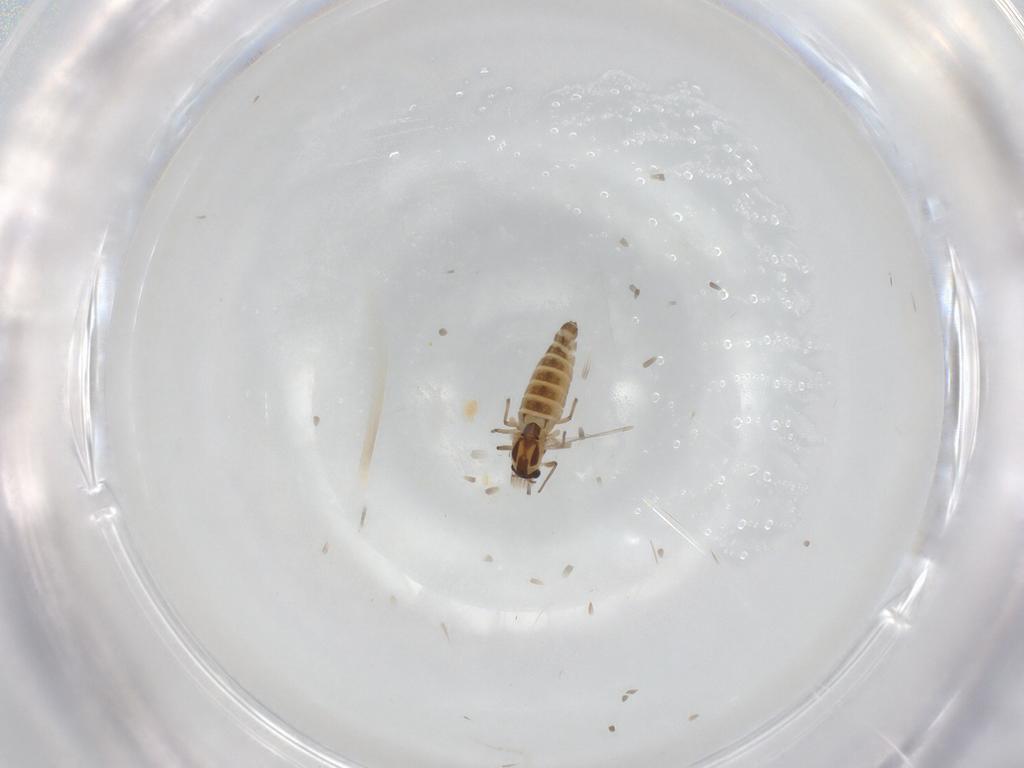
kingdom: Animalia
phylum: Arthropoda
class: Insecta
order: Diptera
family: Chironomidae
